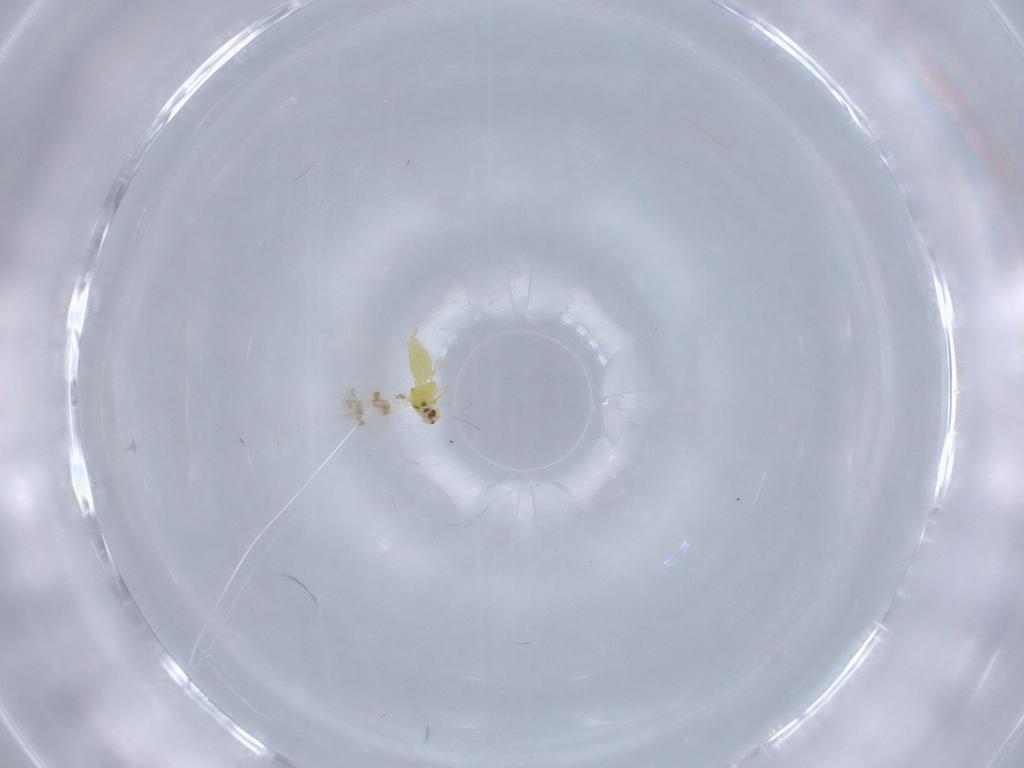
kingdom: Animalia
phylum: Arthropoda
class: Insecta
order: Hemiptera
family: Aleyrodidae
